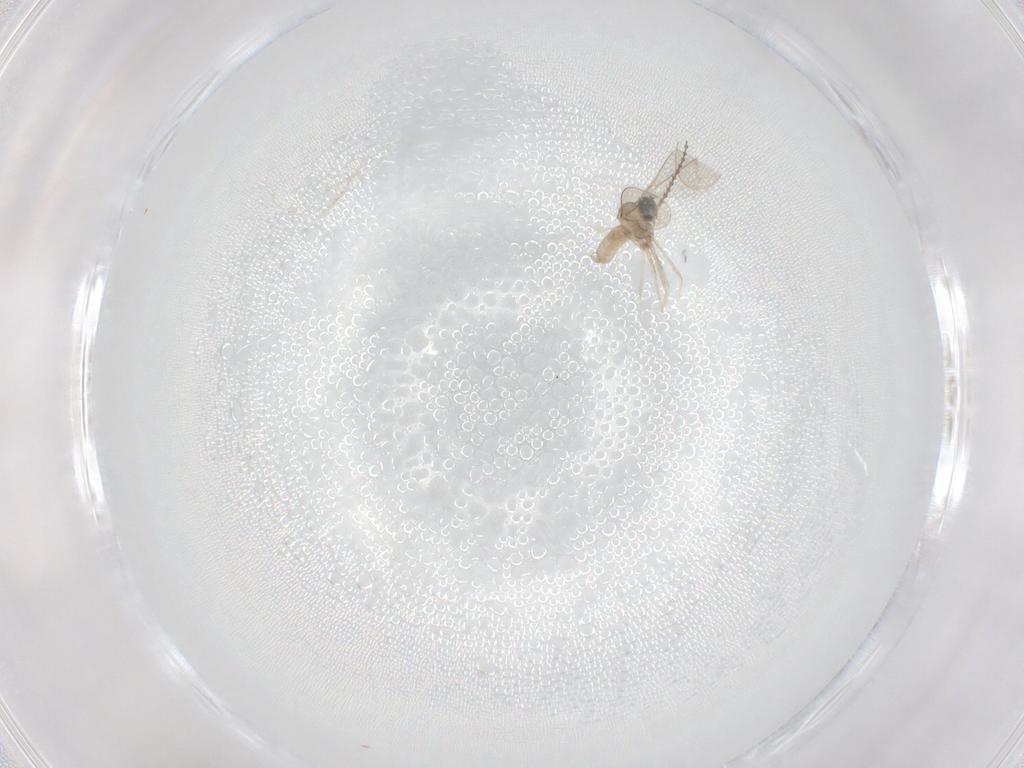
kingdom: Animalia
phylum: Arthropoda
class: Insecta
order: Diptera
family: Cecidomyiidae
